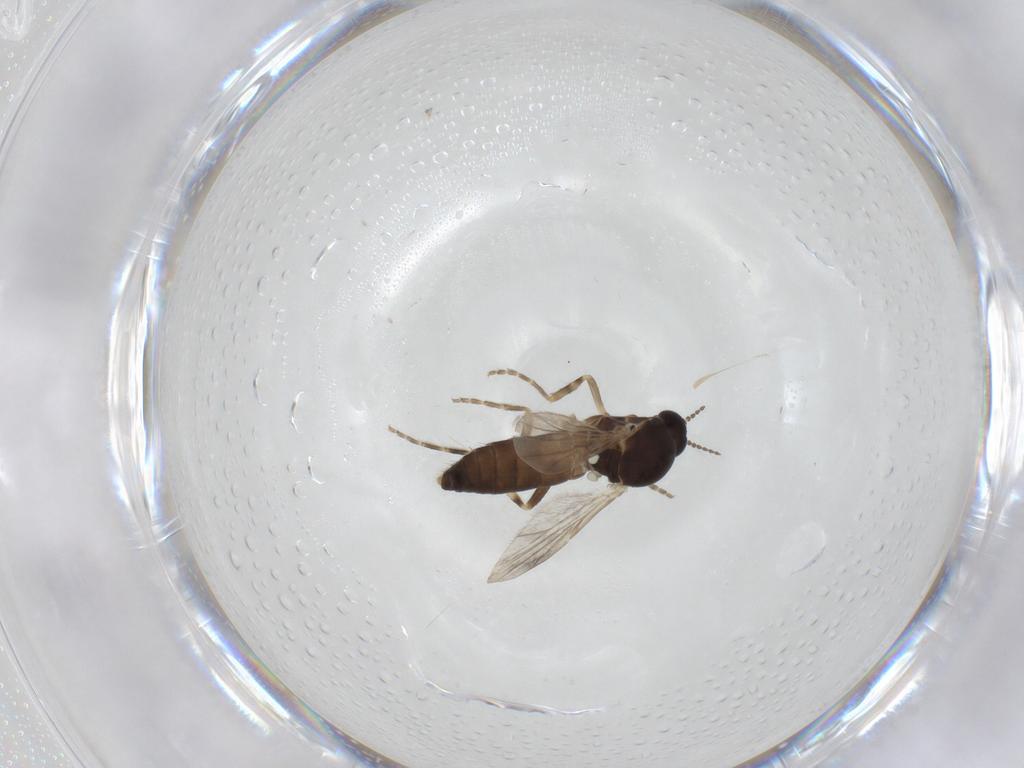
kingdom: Animalia
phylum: Arthropoda
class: Insecta
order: Diptera
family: Ceratopogonidae
